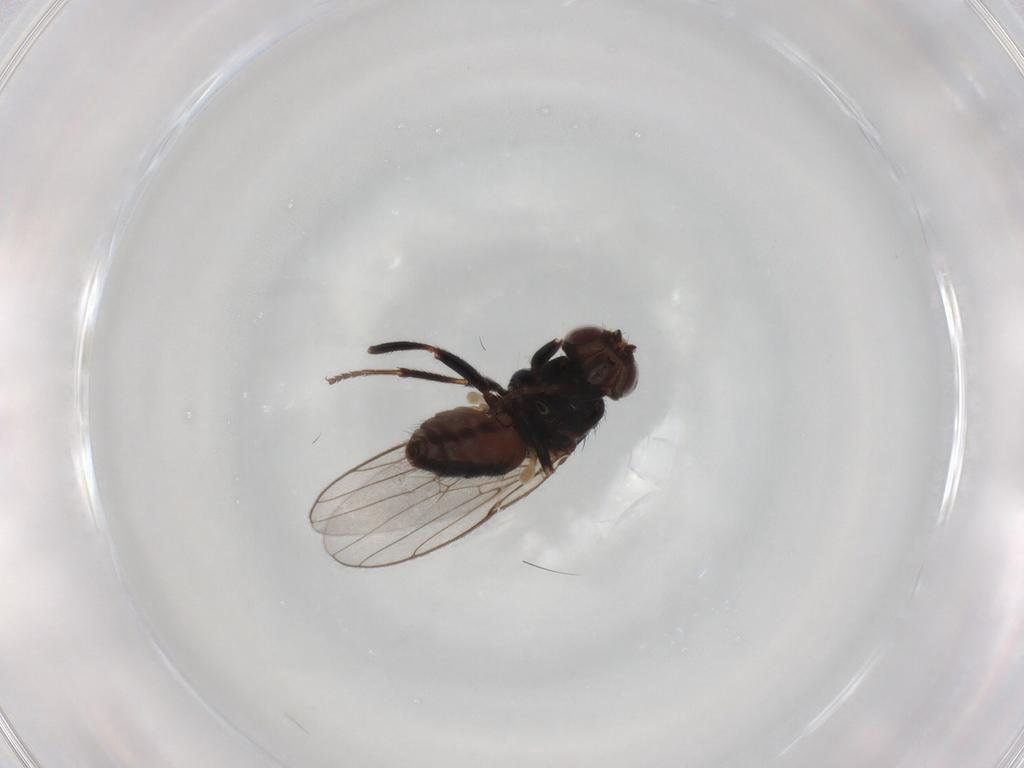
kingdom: Animalia
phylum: Arthropoda
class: Insecta
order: Diptera
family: Chloropidae
